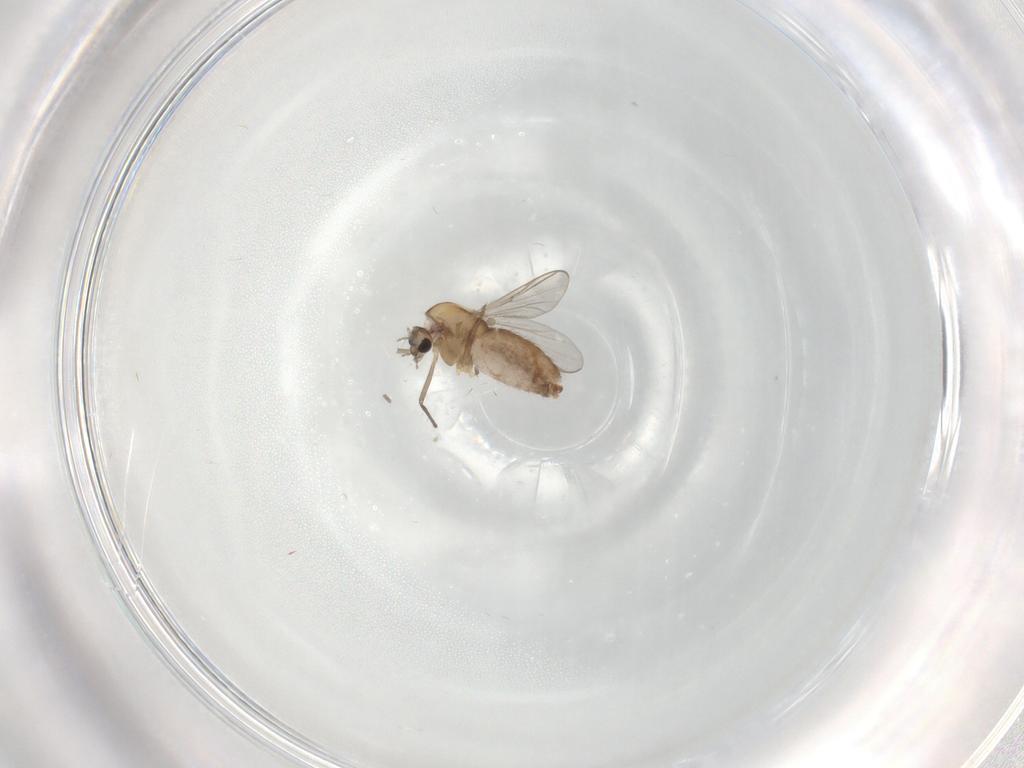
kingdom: Animalia
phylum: Arthropoda
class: Insecta
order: Diptera
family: Chironomidae
